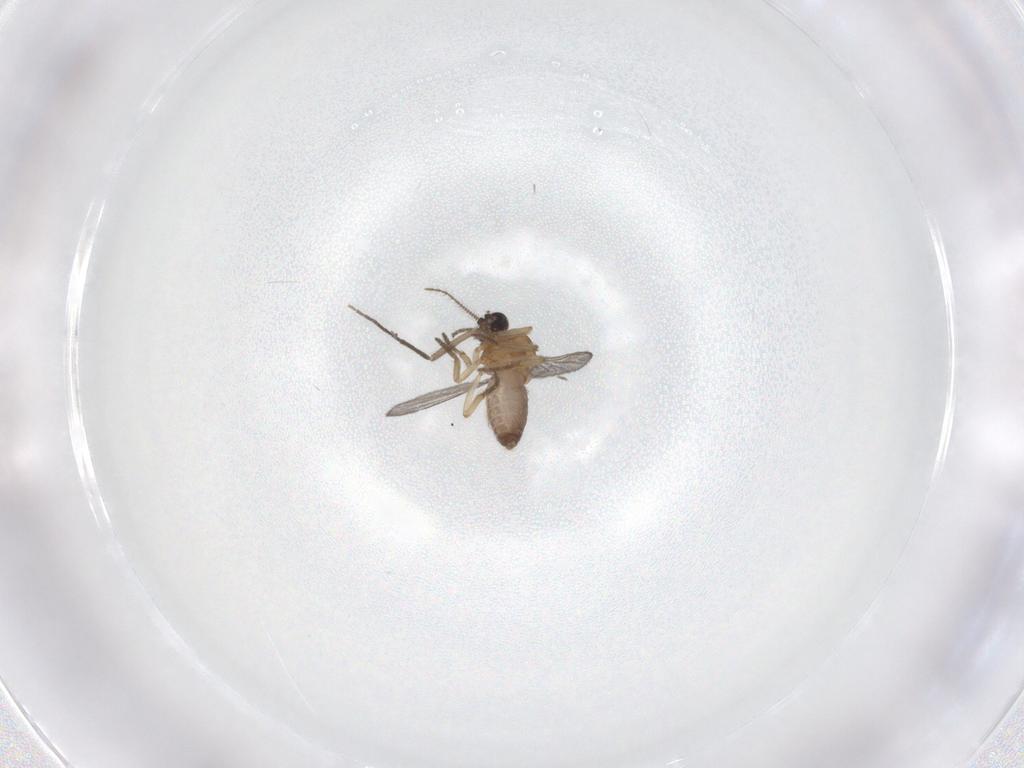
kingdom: Animalia
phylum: Arthropoda
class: Insecta
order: Diptera
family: Chironomidae
